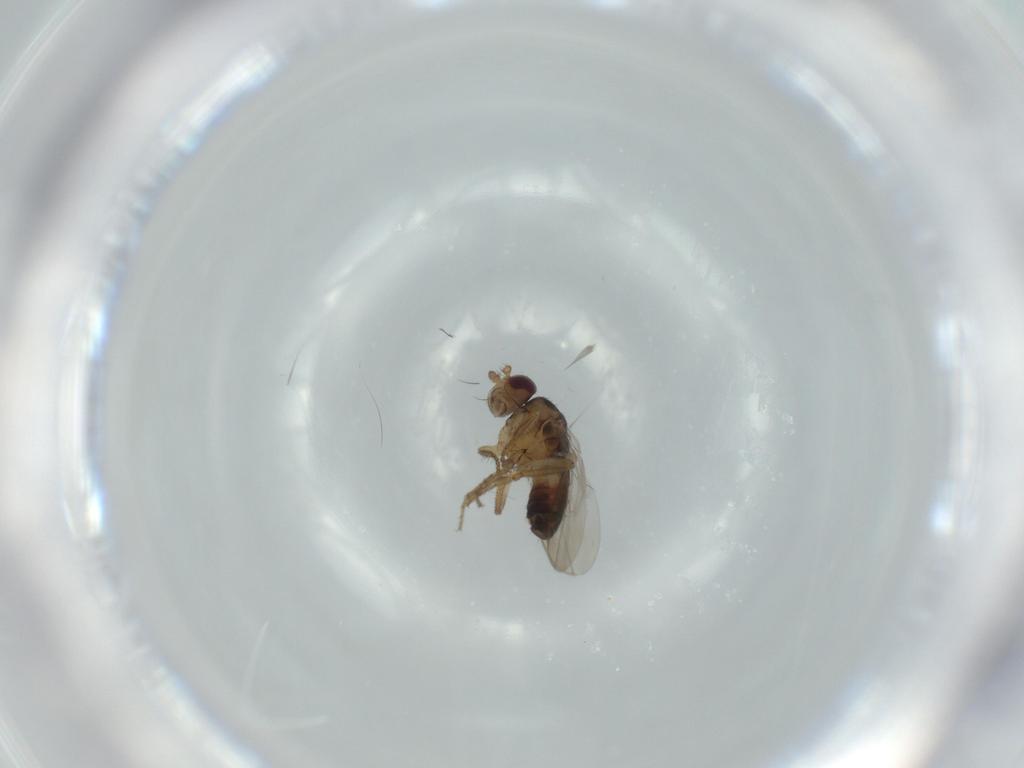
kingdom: Animalia
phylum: Arthropoda
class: Insecta
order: Diptera
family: Sphaeroceridae
